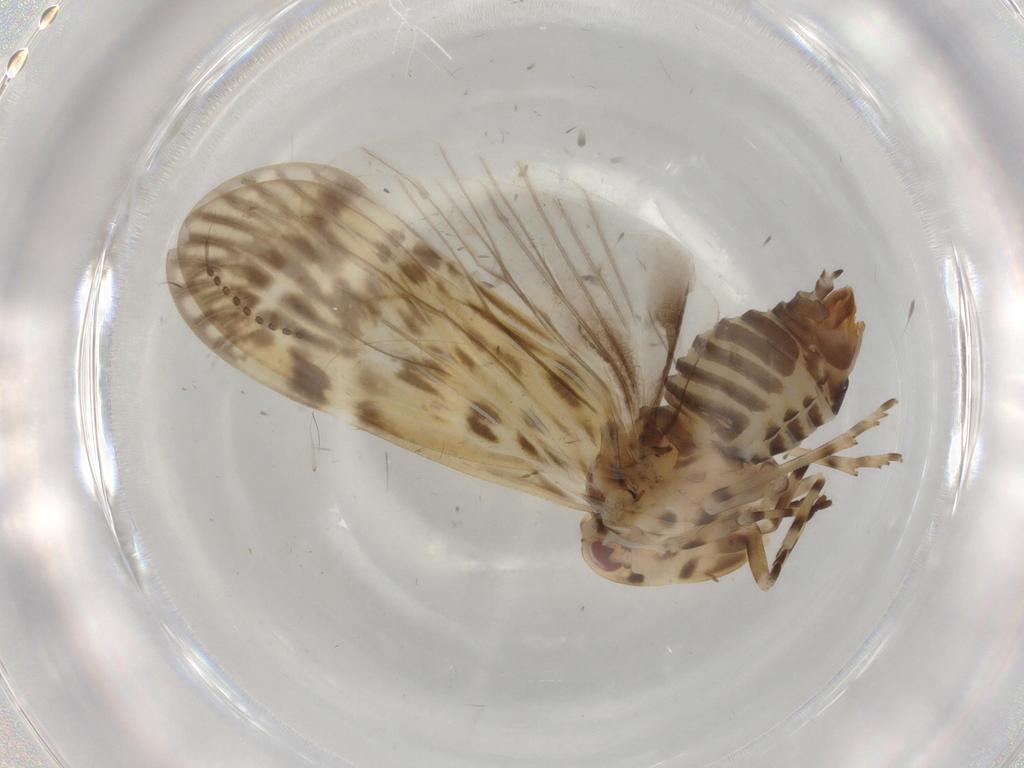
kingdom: Animalia
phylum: Arthropoda
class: Insecta
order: Hemiptera
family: Derbidae
